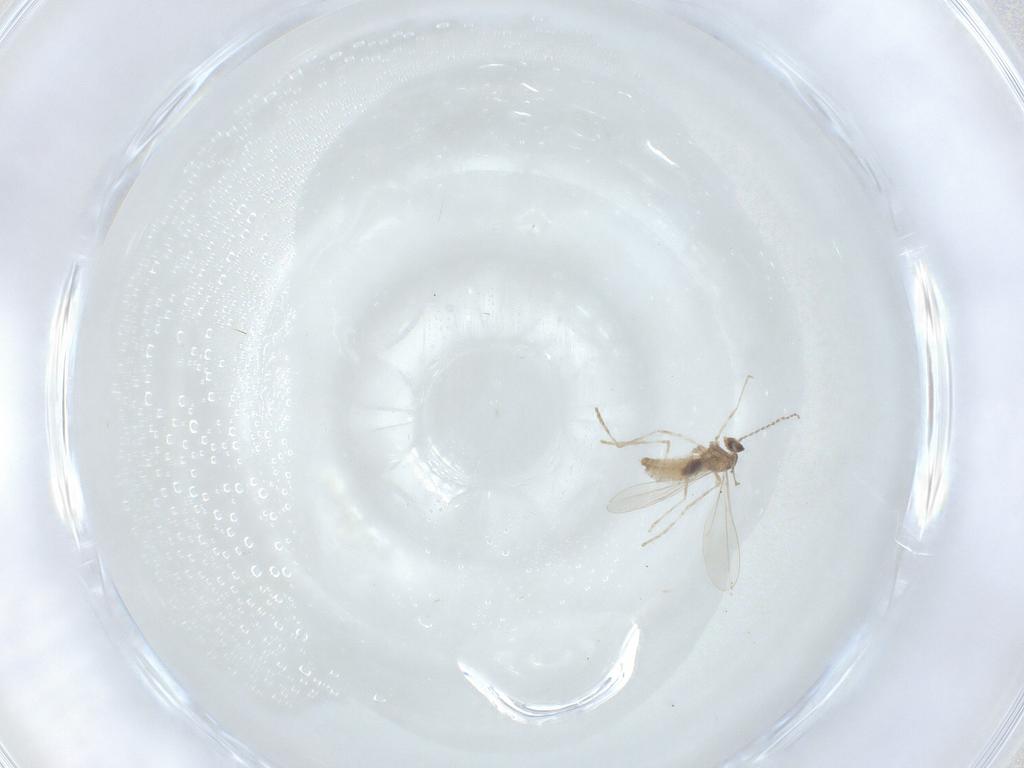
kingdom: Animalia
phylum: Arthropoda
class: Insecta
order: Diptera
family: Cecidomyiidae
